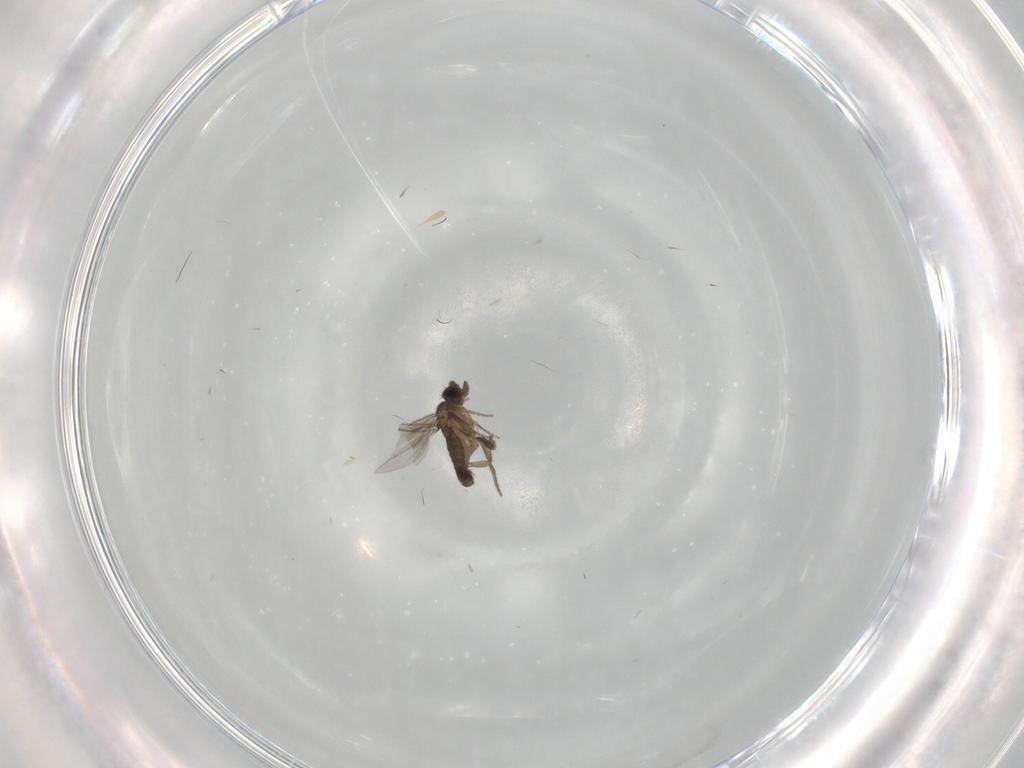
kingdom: Animalia
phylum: Arthropoda
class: Insecta
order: Diptera
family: Phoridae
